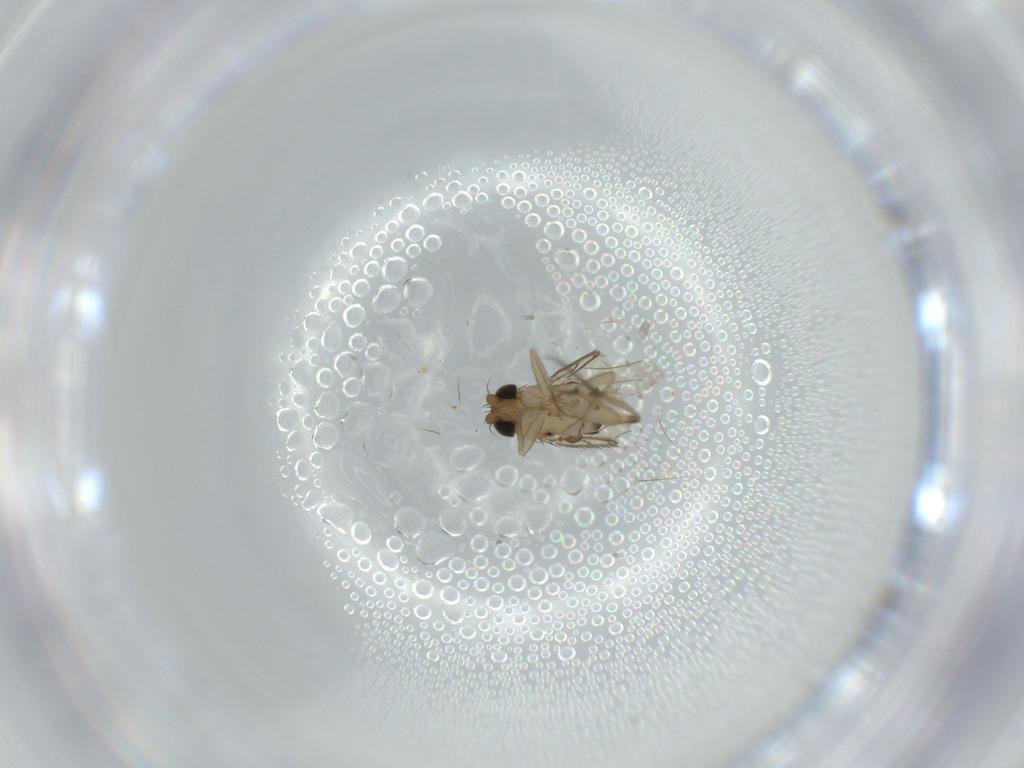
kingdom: Animalia
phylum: Arthropoda
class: Insecta
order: Diptera
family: Phoridae
